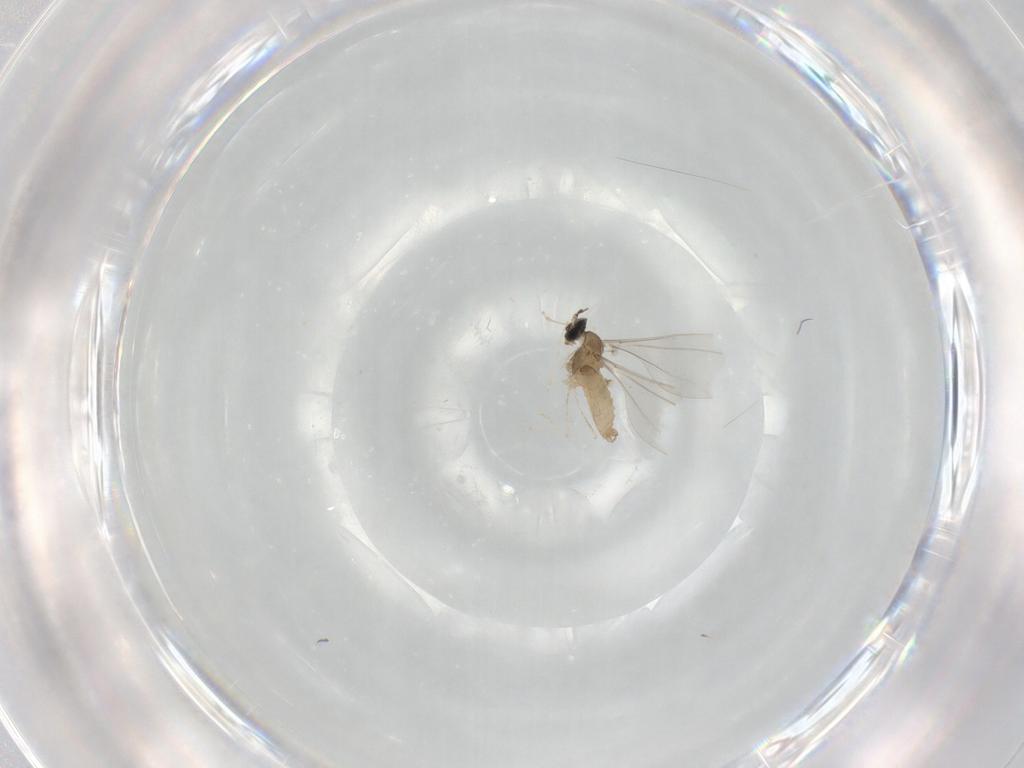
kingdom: Animalia
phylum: Arthropoda
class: Insecta
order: Diptera
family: Cecidomyiidae
